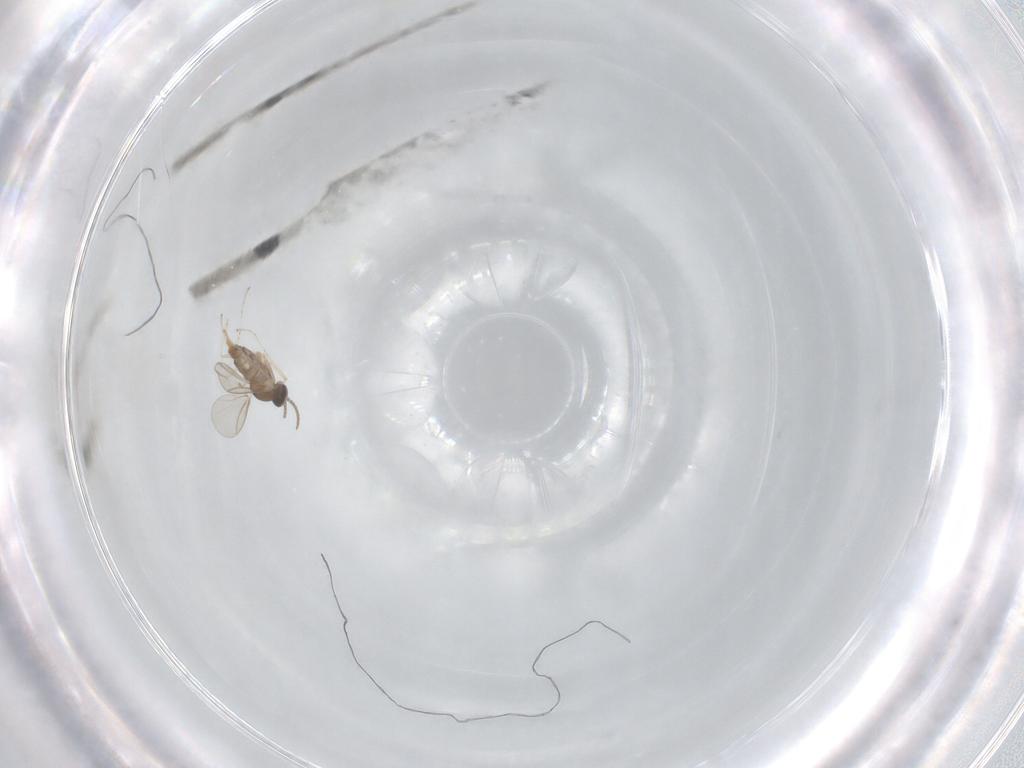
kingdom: Animalia
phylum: Arthropoda
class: Insecta
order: Diptera
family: Cecidomyiidae
